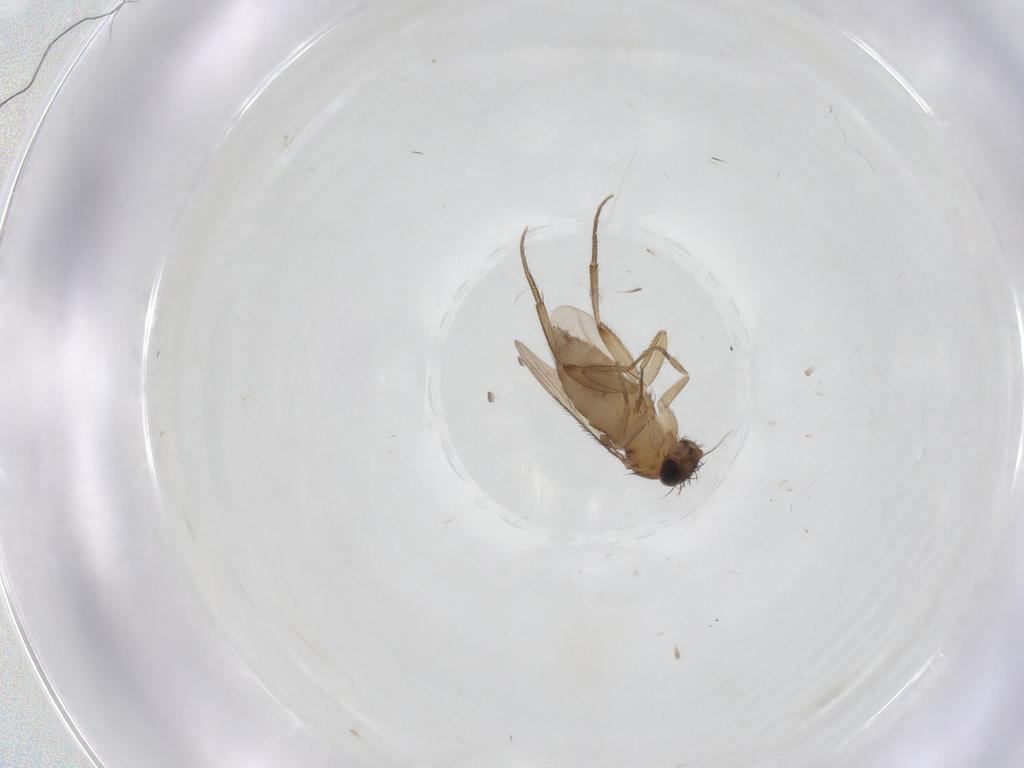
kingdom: Animalia
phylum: Arthropoda
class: Insecta
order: Diptera
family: Phoridae
